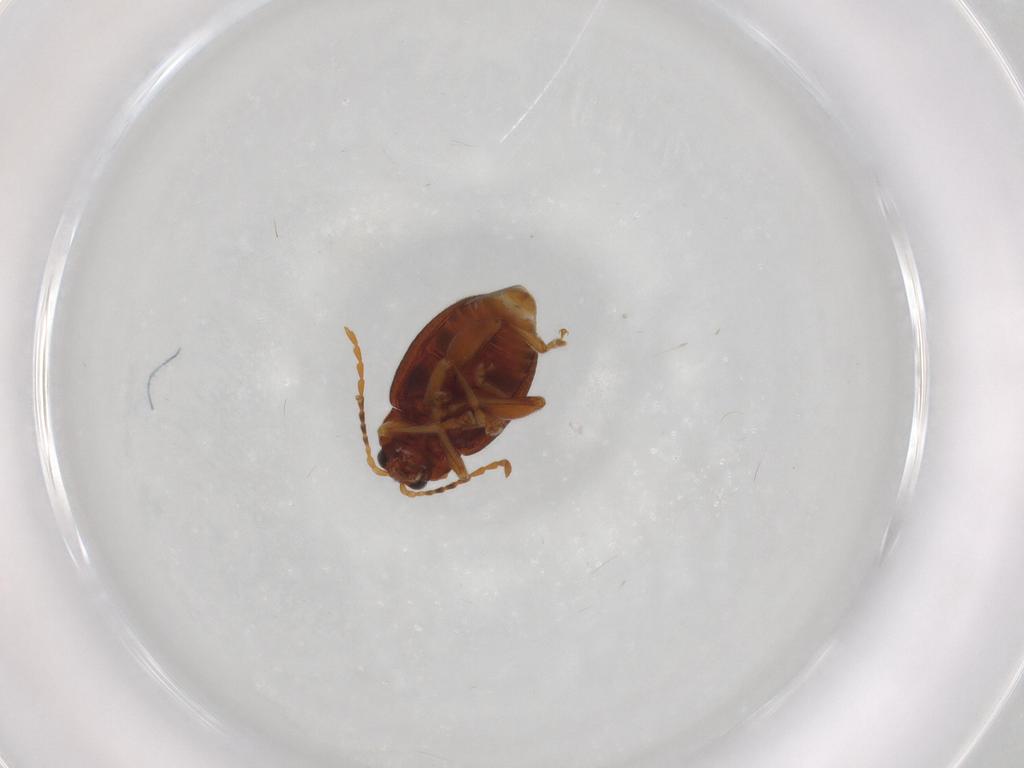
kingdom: Animalia
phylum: Arthropoda
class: Insecta
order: Coleoptera
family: Chrysomelidae
